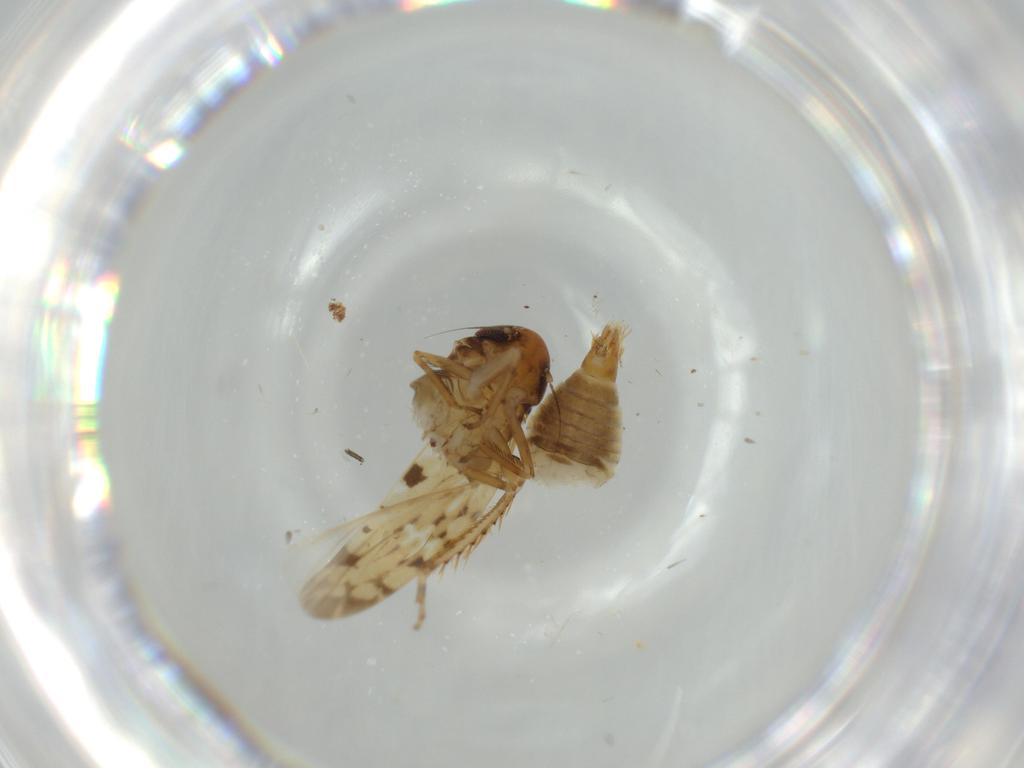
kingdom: Animalia
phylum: Arthropoda
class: Insecta
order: Hemiptera
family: Cicadellidae
